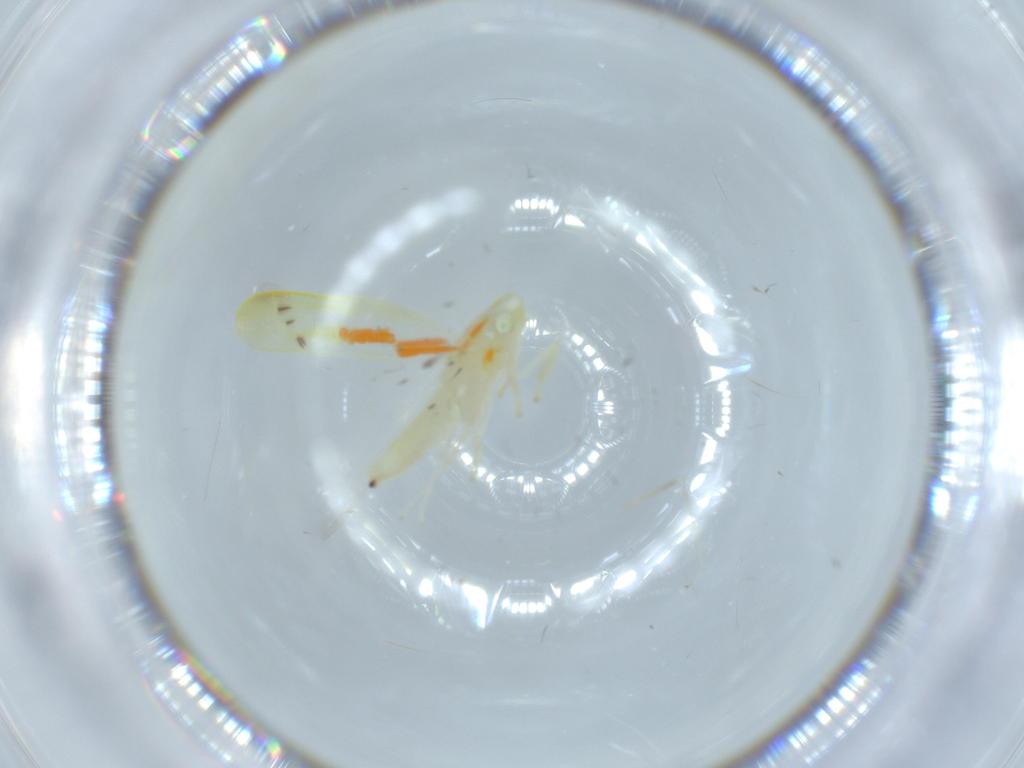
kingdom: Animalia
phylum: Arthropoda
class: Insecta
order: Hemiptera
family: Cicadellidae
